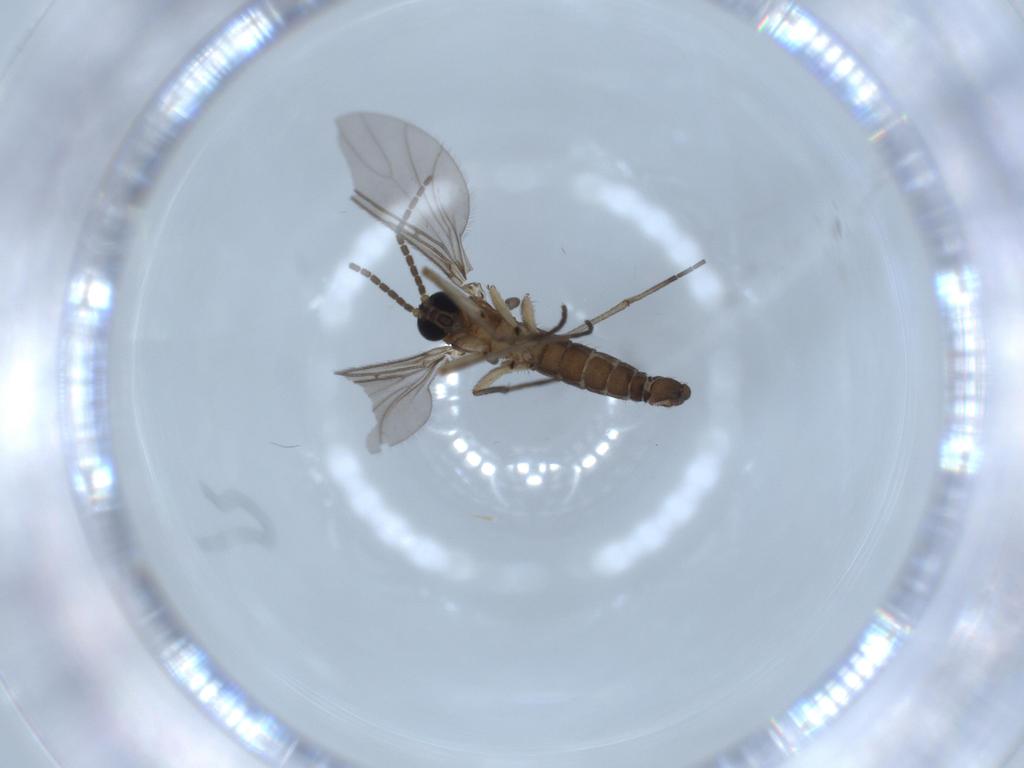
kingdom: Animalia
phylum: Arthropoda
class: Insecta
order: Diptera
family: Sciaridae
